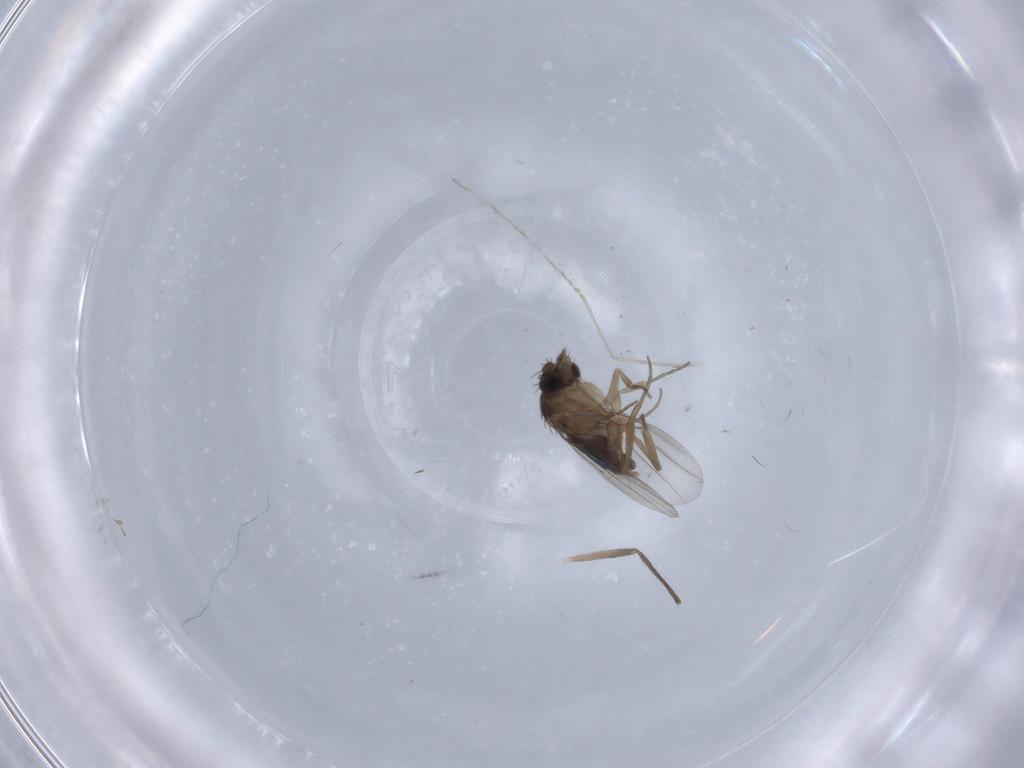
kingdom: Animalia
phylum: Arthropoda
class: Insecta
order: Diptera
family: Chironomidae
